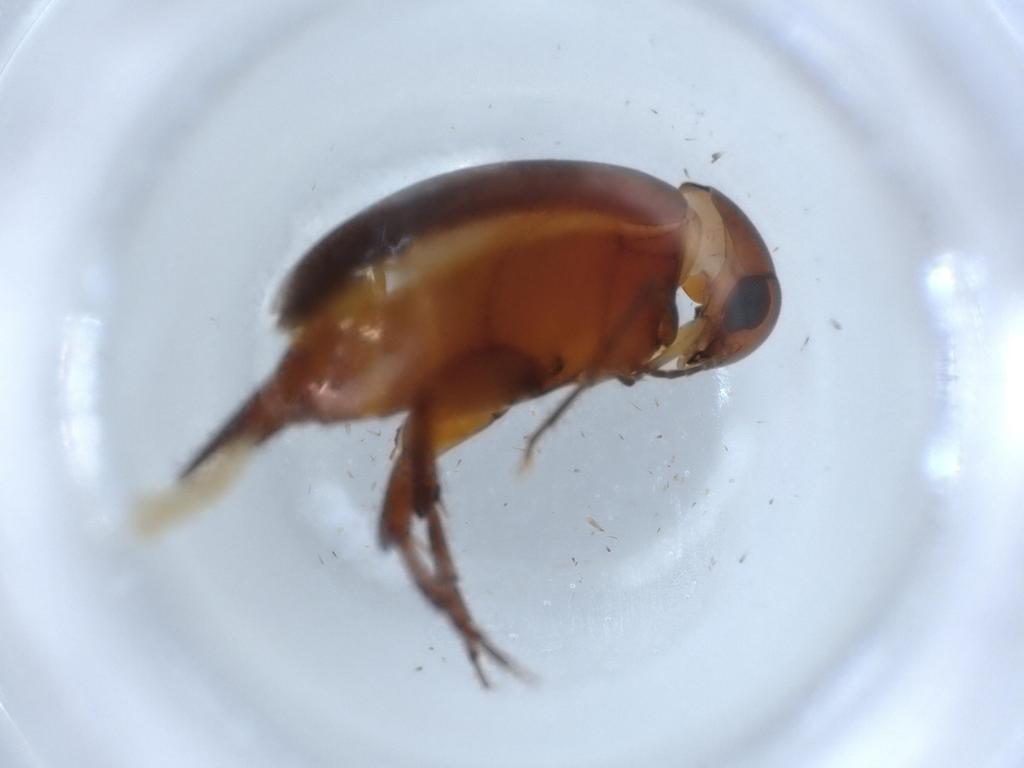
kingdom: Animalia
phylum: Arthropoda
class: Insecta
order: Coleoptera
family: Mordellidae
